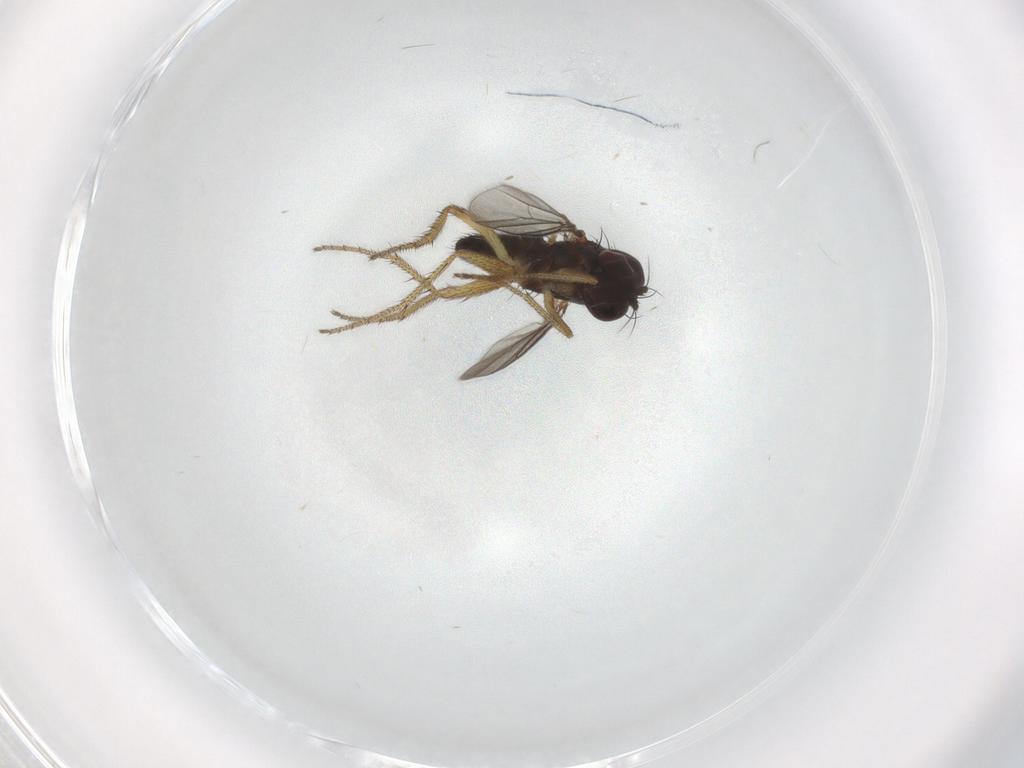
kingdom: Animalia
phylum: Arthropoda
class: Insecta
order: Diptera
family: Dolichopodidae
